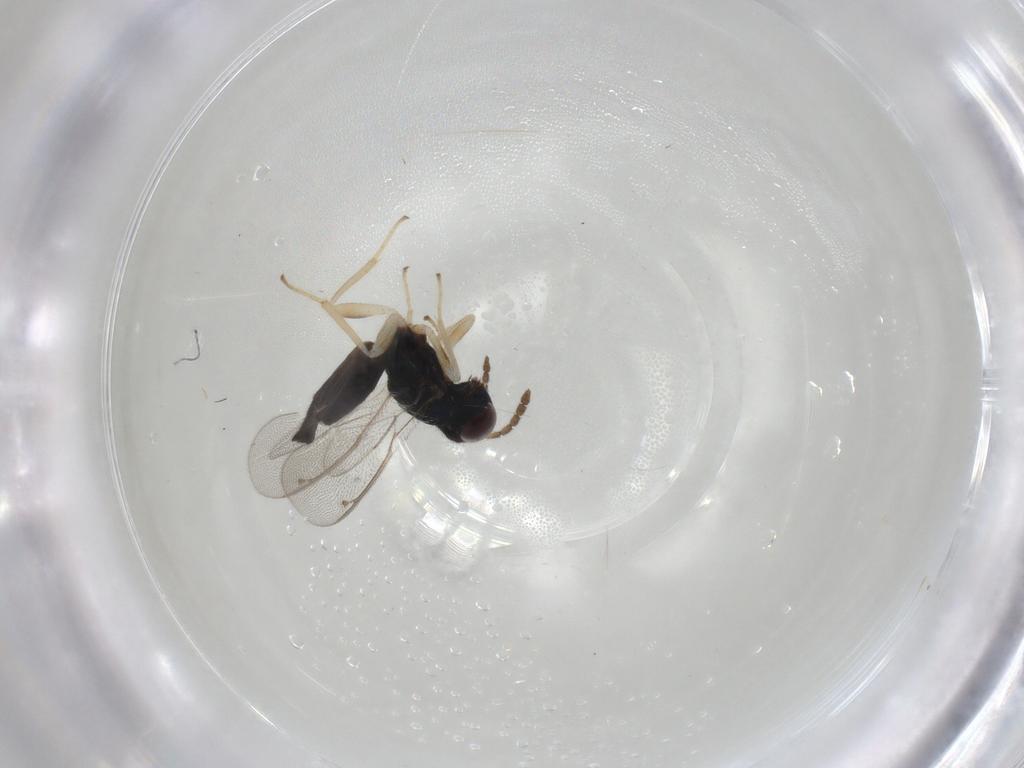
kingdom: Animalia
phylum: Arthropoda
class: Insecta
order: Hymenoptera
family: Eulophidae
